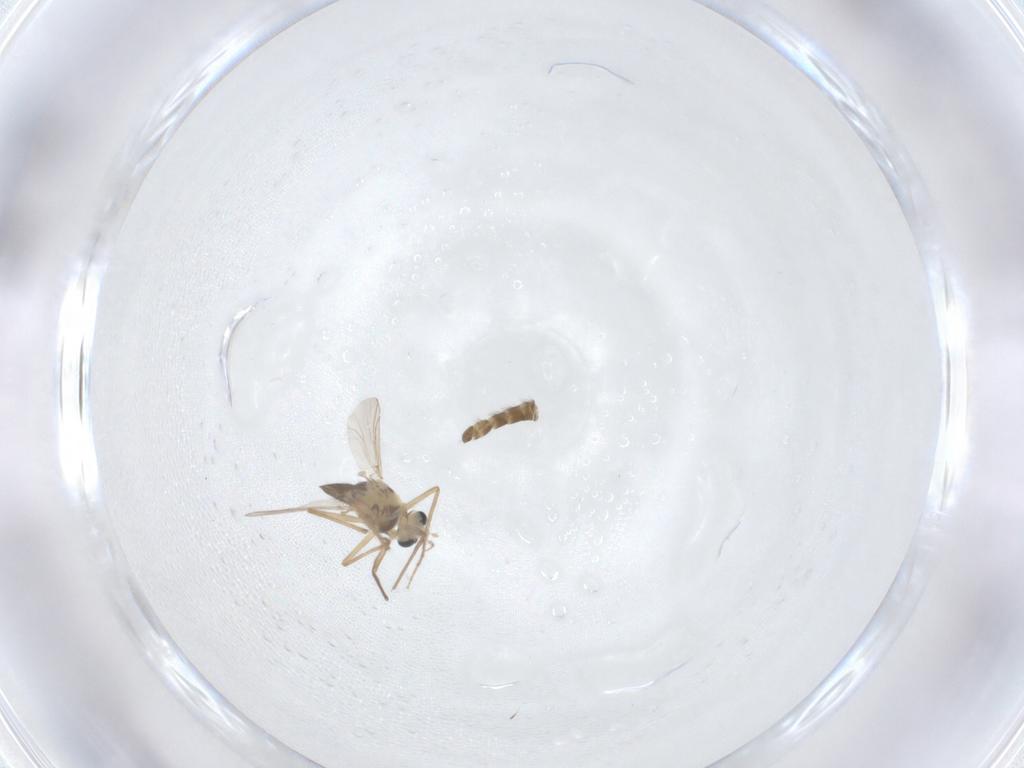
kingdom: Animalia
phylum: Arthropoda
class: Insecta
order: Diptera
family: Chironomidae
